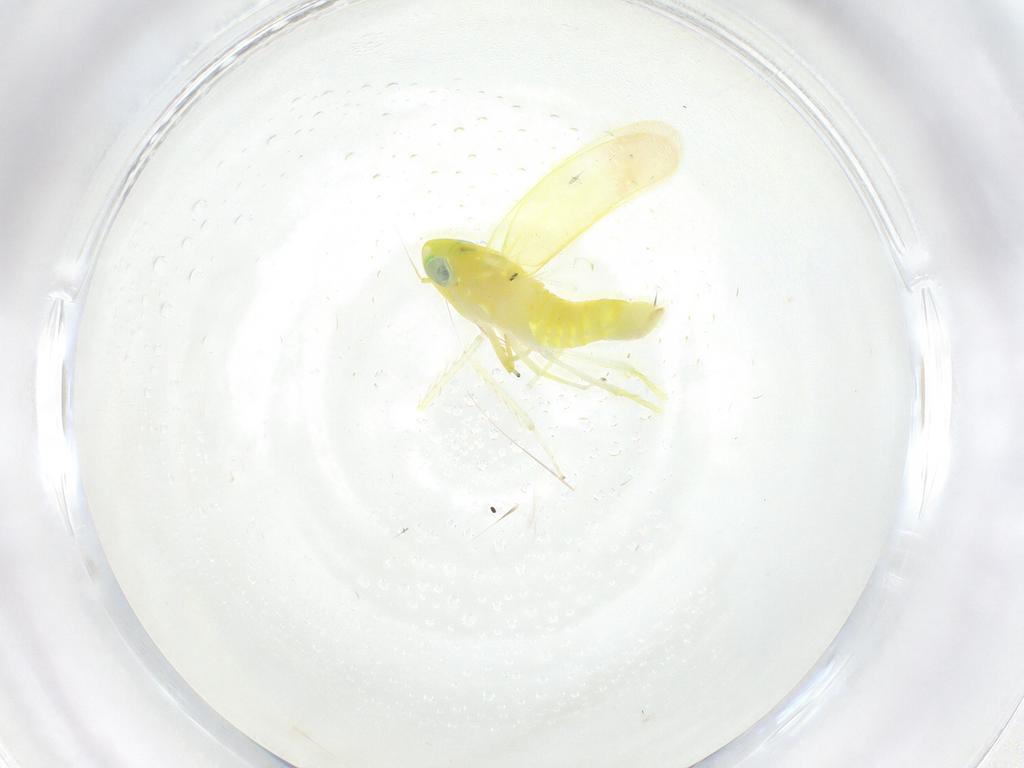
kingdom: Animalia
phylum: Arthropoda
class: Insecta
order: Hemiptera
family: Cicadellidae
